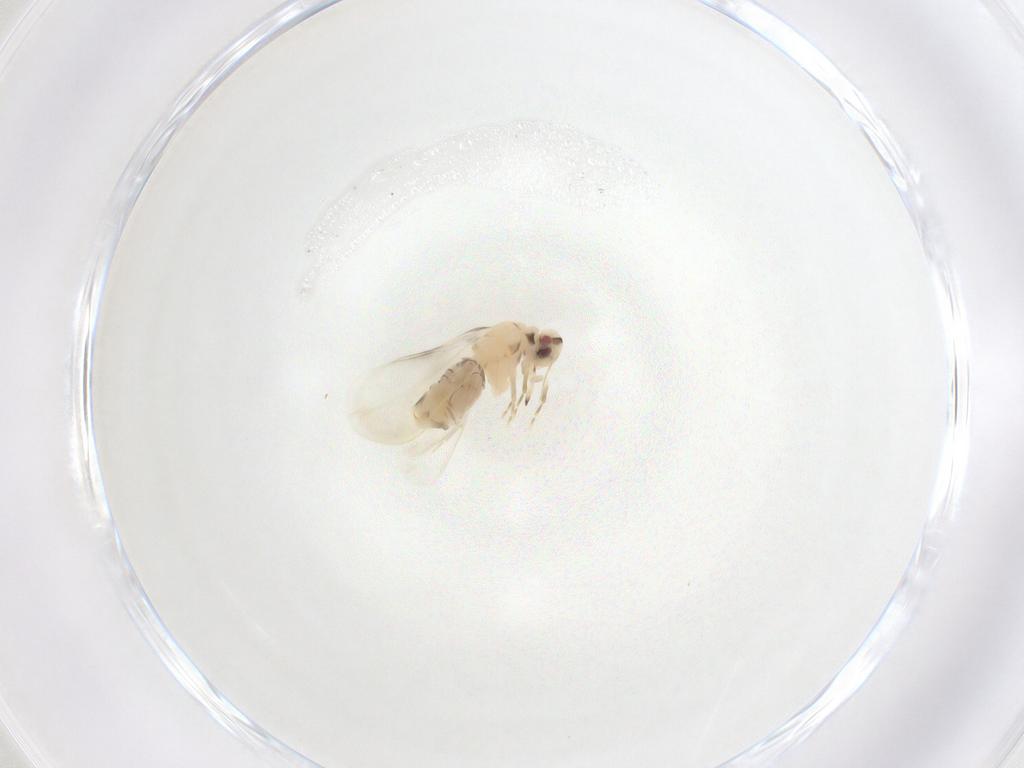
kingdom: Animalia
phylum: Arthropoda
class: Insecta
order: Hemiptera
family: Aleyrodidae
